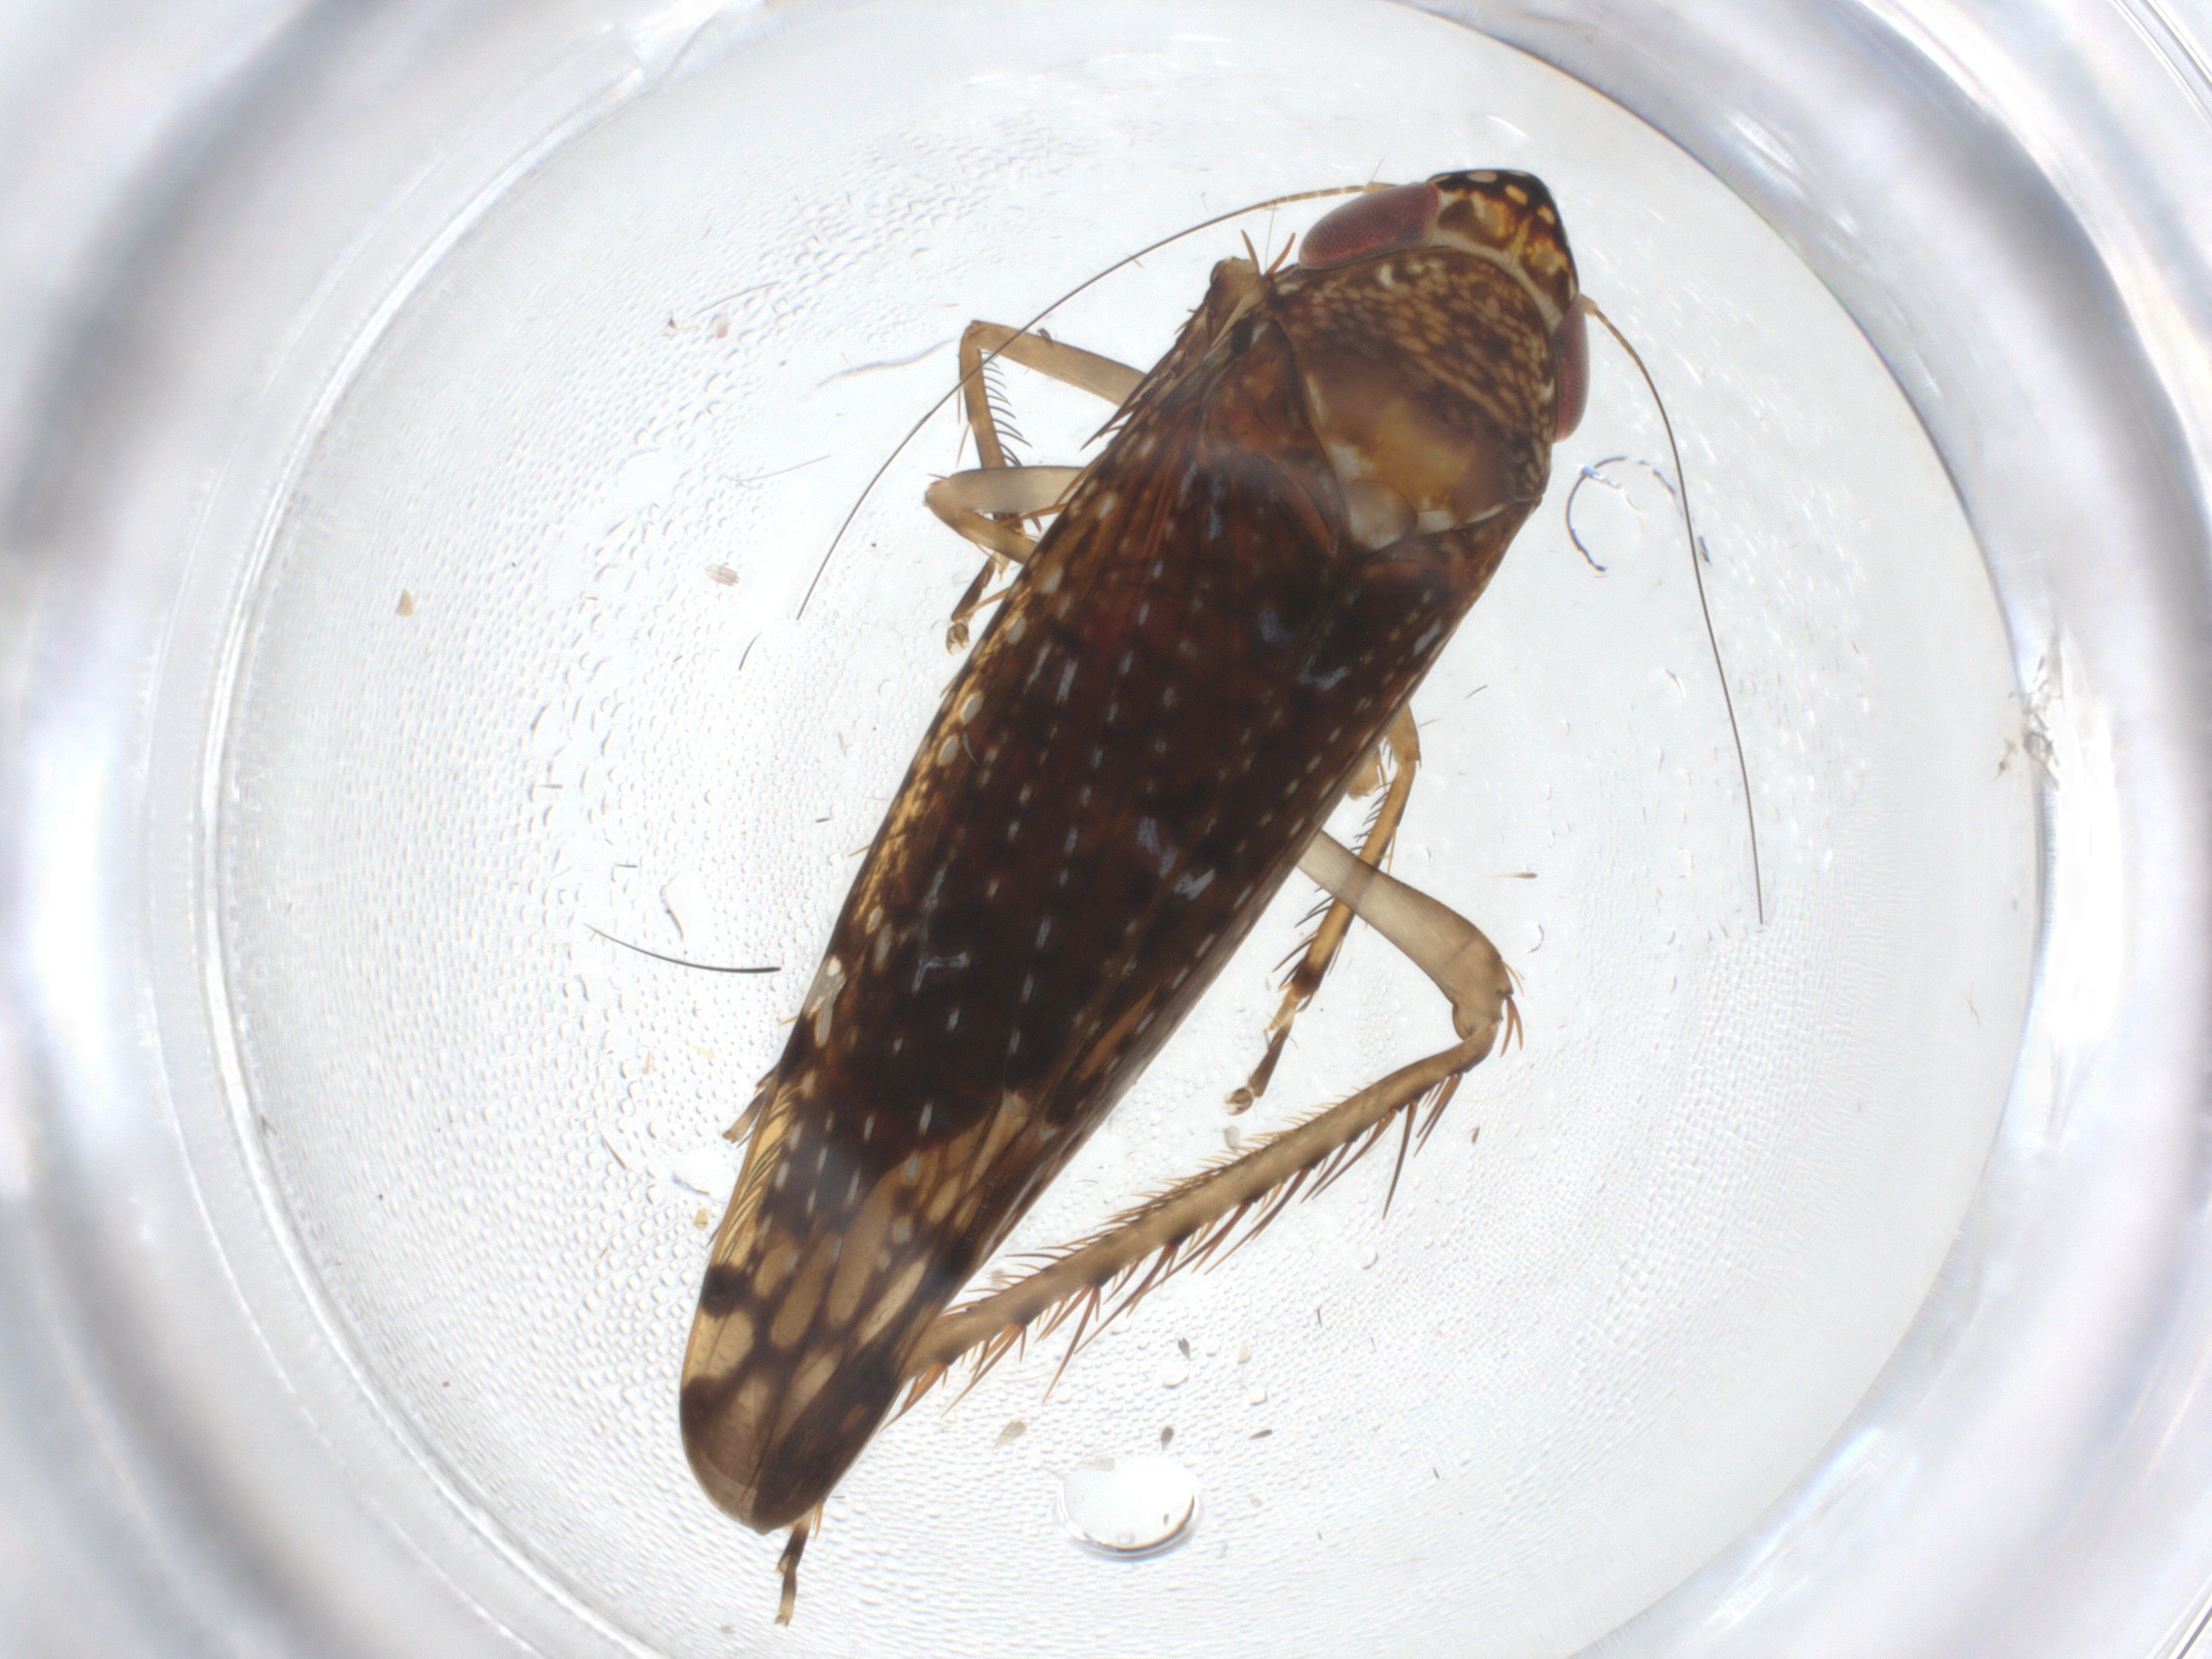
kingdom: Animalia
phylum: Arthropoda
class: Insecta
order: Hemiptera
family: Cicadellidae
